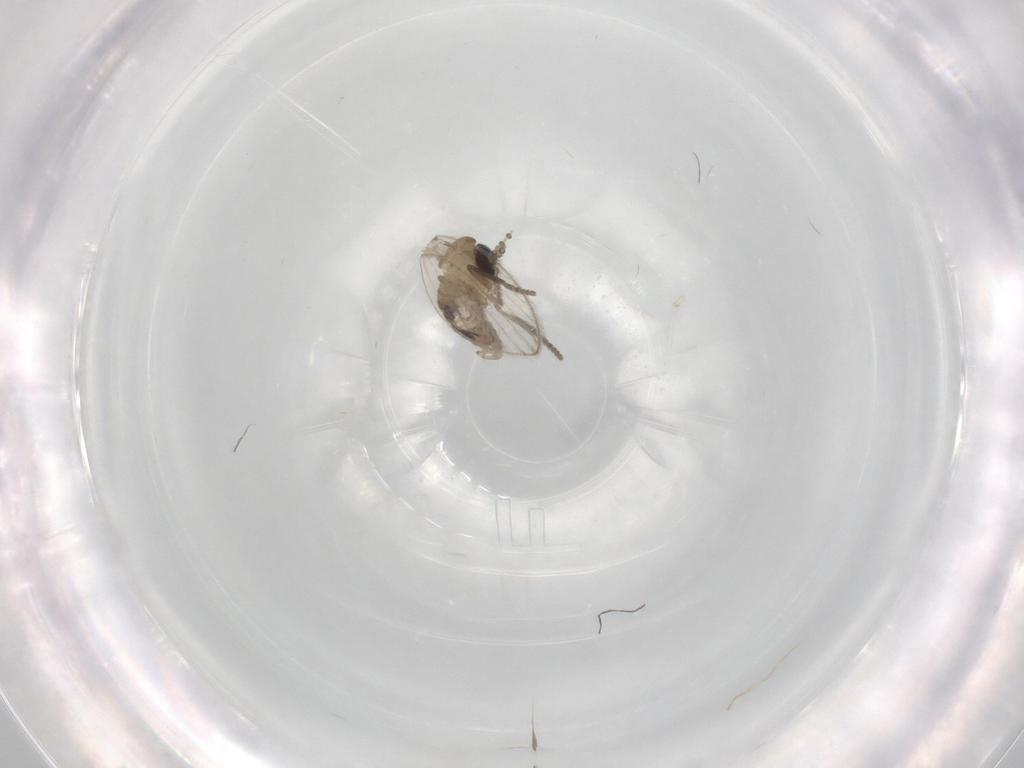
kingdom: Animalia
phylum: Arthropoda
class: Insecta
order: Diptera
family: Psychodidae
